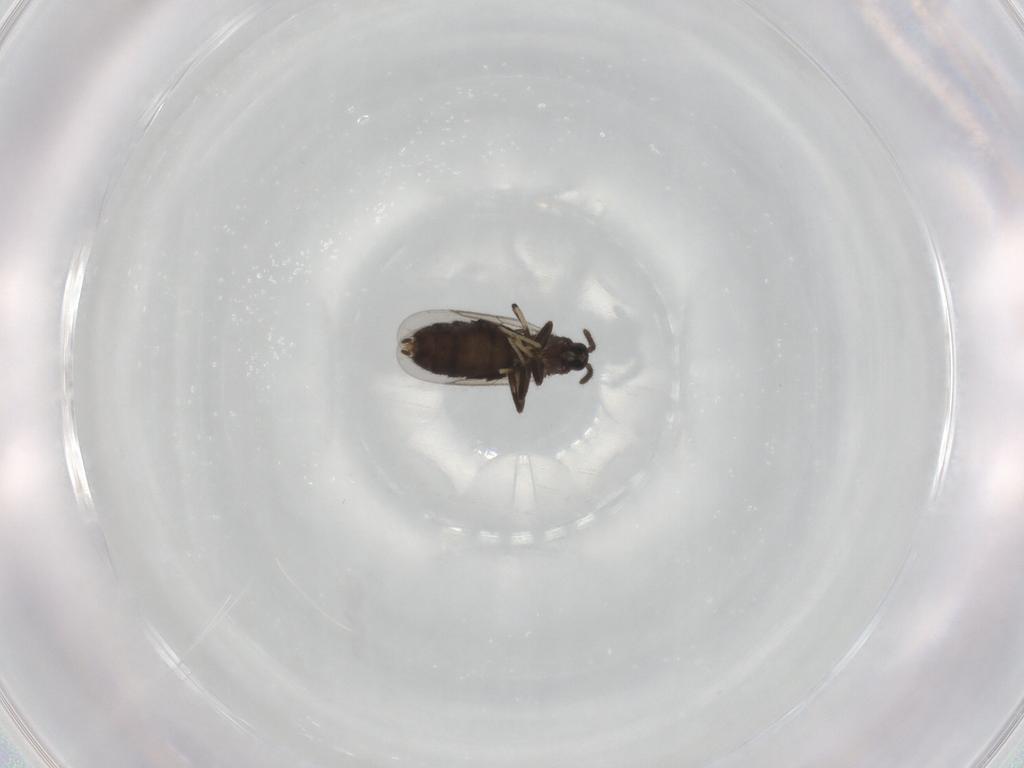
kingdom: Animalia
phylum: Arthropoda
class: Insecta
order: Diptera
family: Scatopsidae
